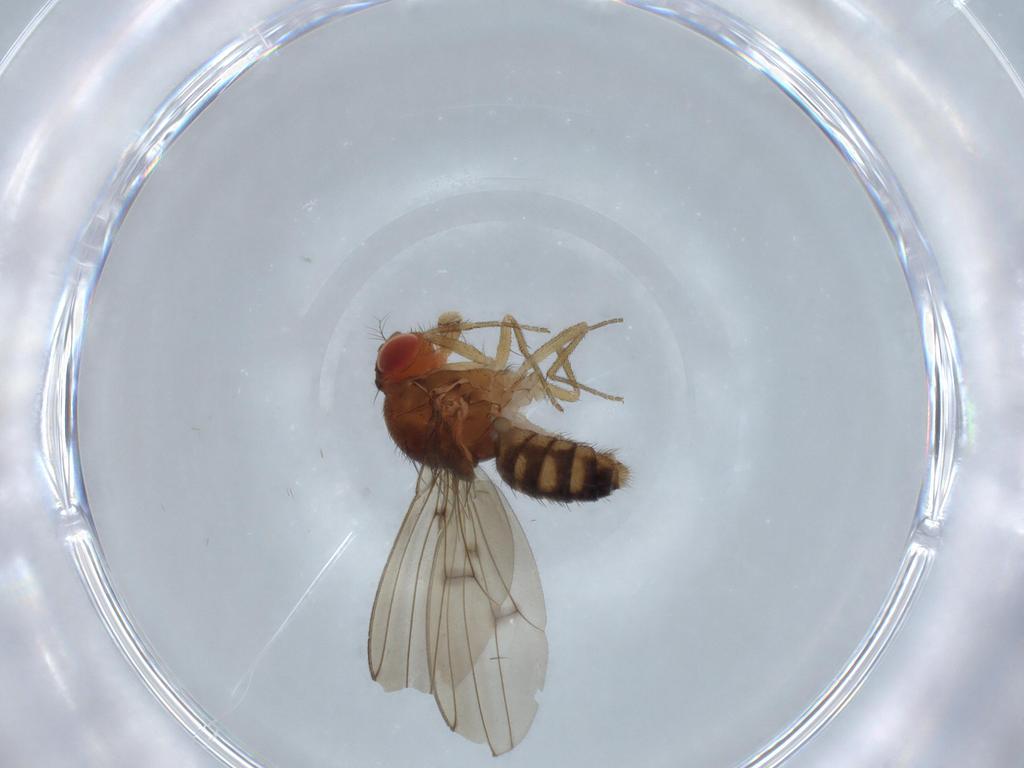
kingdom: Animalia
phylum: Arthropoda
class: Insecta
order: Diptera
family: Drosophilidae
